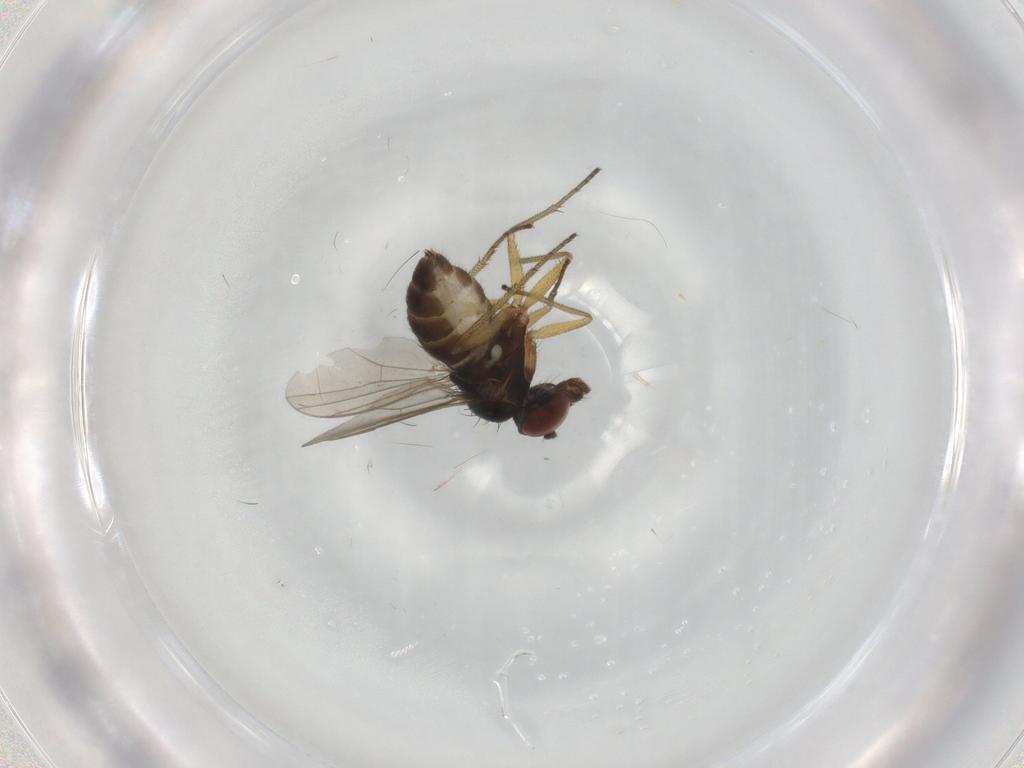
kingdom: Animalia
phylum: Arthropoda
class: Insecta
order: Diptera
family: Dolichopodidae
